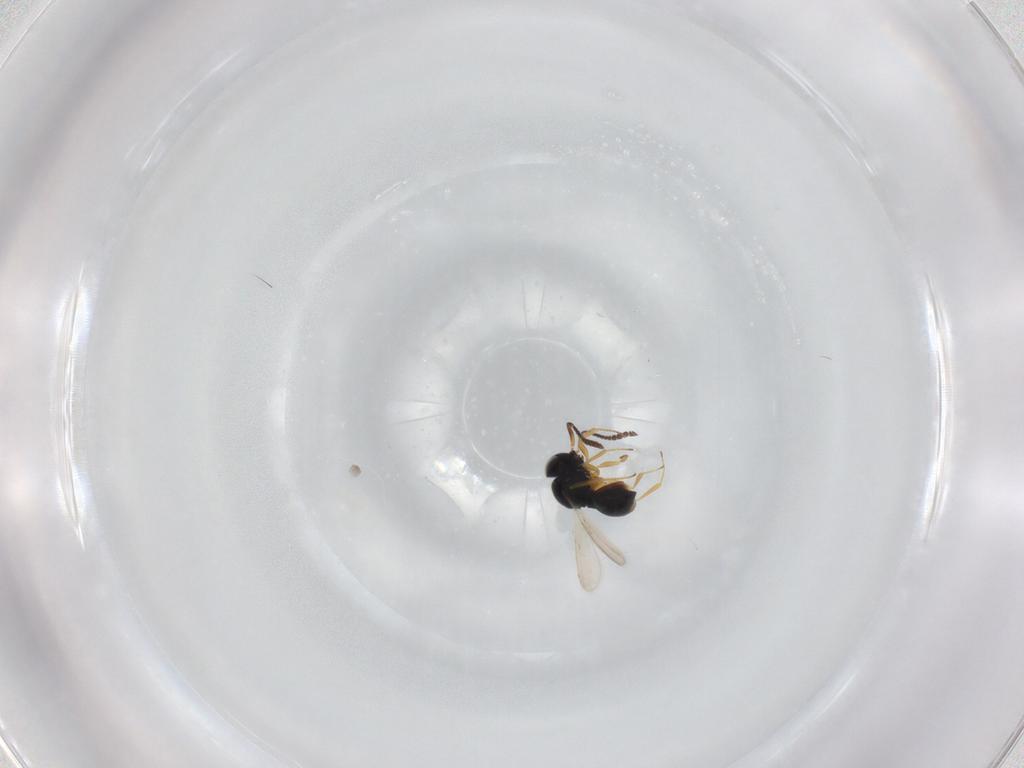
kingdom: Animalia
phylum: Arthropoda
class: Insecta
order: Hymenoptera
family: Scelionidae
